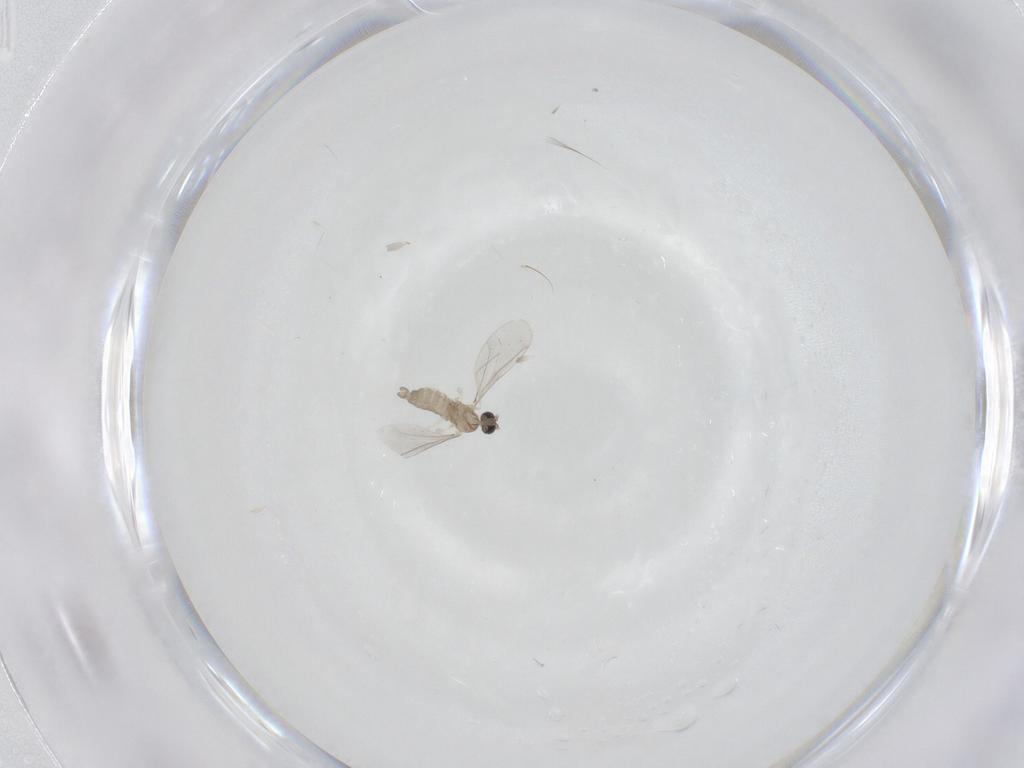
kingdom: Animalia
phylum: Arthropoda
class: Insecta
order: Diptera
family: Cecidomyiidae
